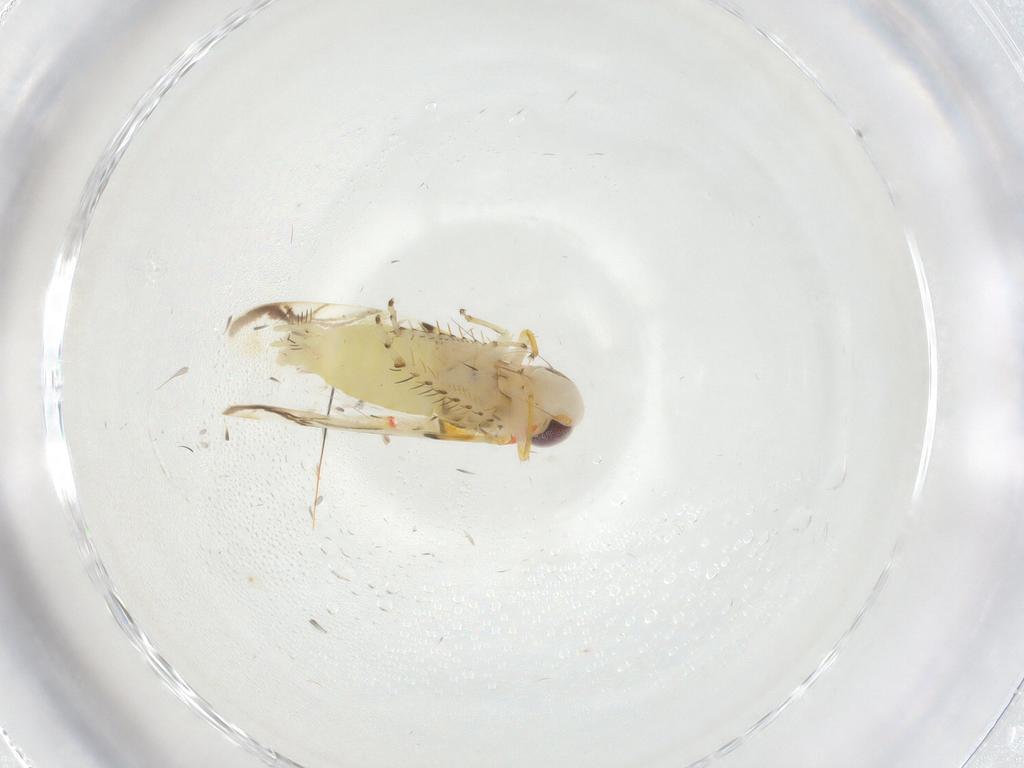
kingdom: Animalia
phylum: Arthropoda
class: Insecta
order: Hemiptera
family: Cicadellidae
